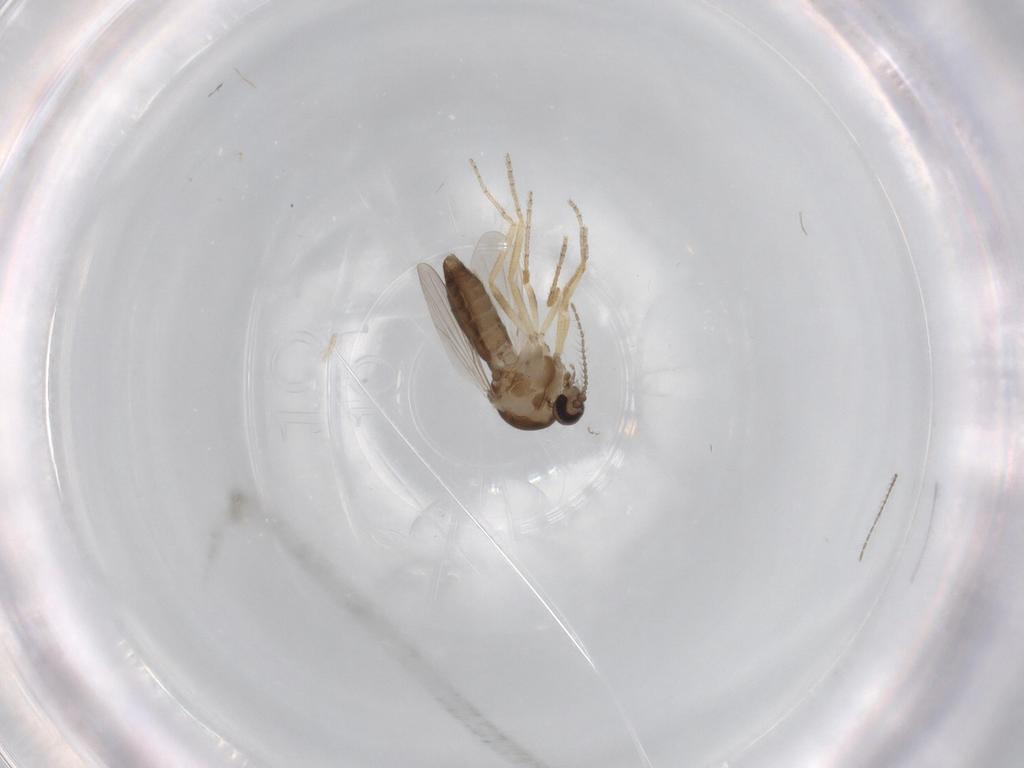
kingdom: Animalia
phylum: Arthropoda
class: Insecta
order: Diptera
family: Ceratopogonidae
